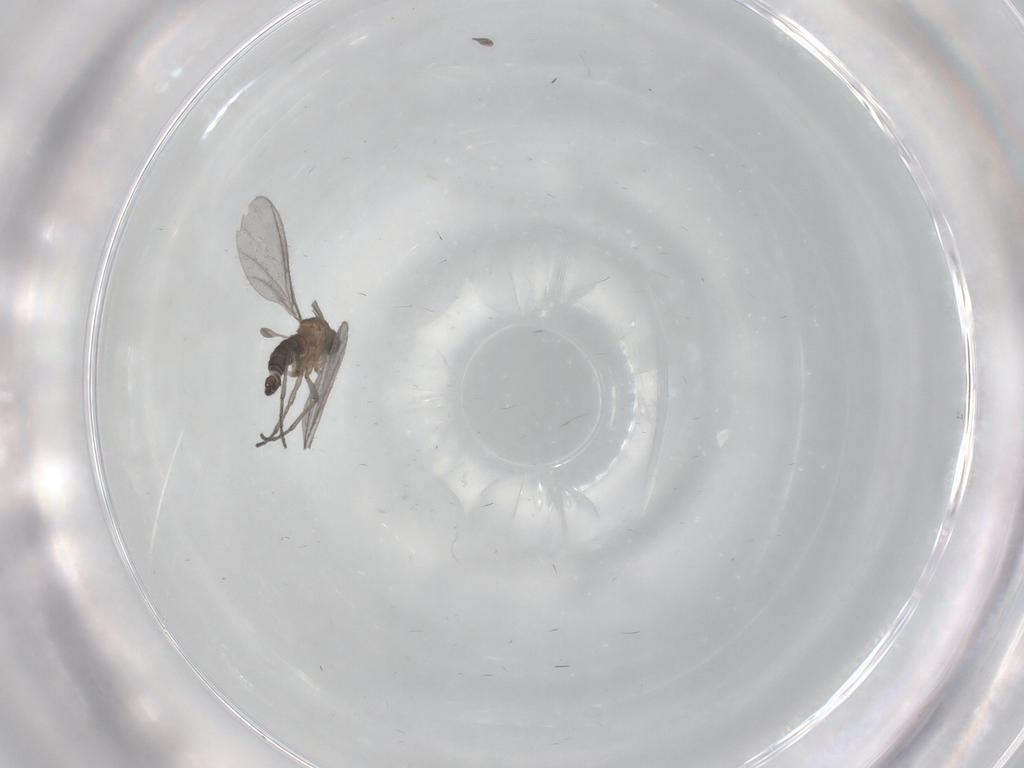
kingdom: Animalia
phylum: Arthropoda
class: Insecta
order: Diptera
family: Sciaridae
